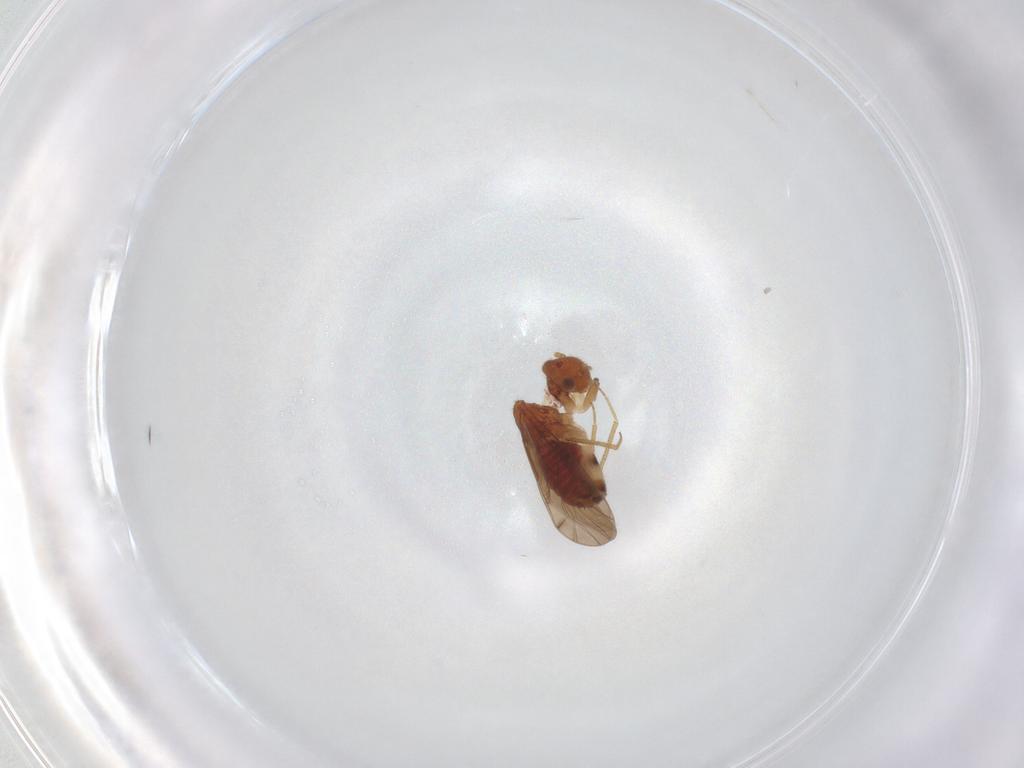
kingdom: Animalia
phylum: Arthropoda
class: Insecta
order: Psocodea
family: Ectopsocidae
